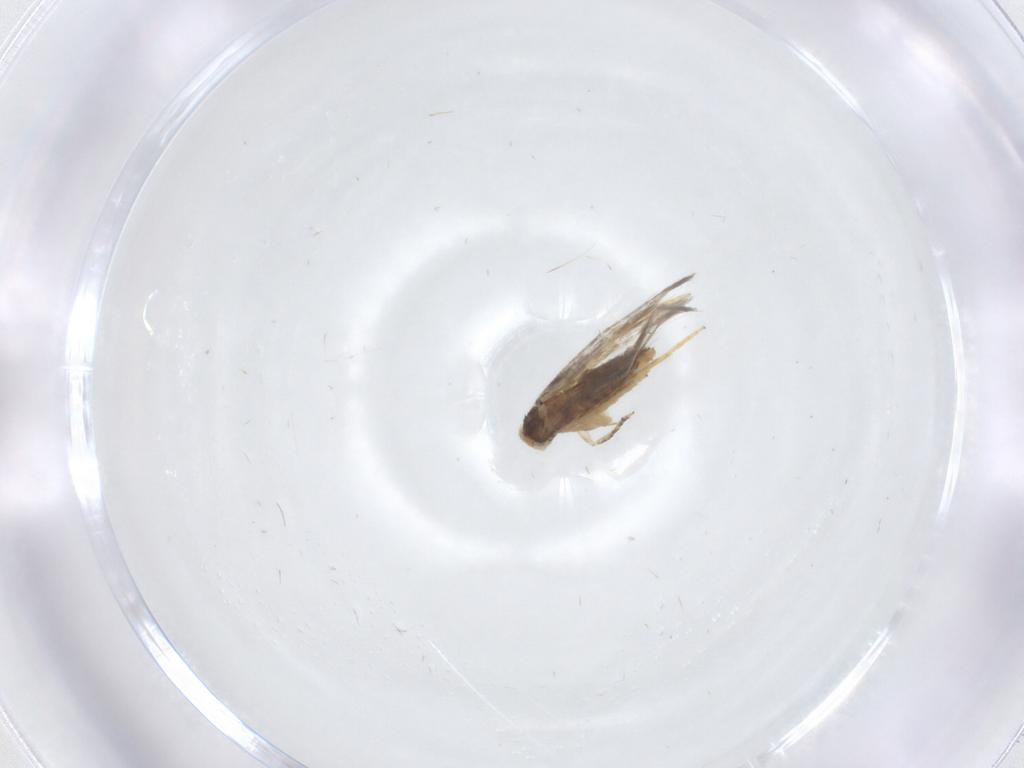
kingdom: Animalia
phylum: Arthropoda
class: Insecta
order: Lepidoptera
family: Nepticulidae
